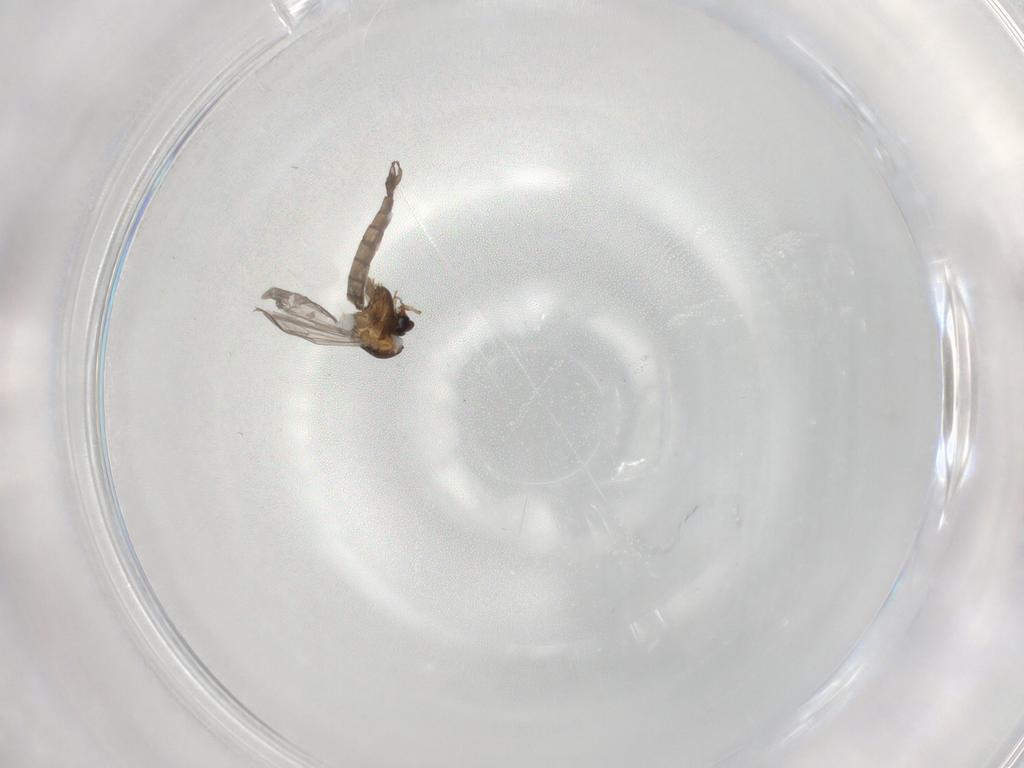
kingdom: Animalia
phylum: Arthropoda
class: Insecta
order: Diptera
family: Chironomidae
